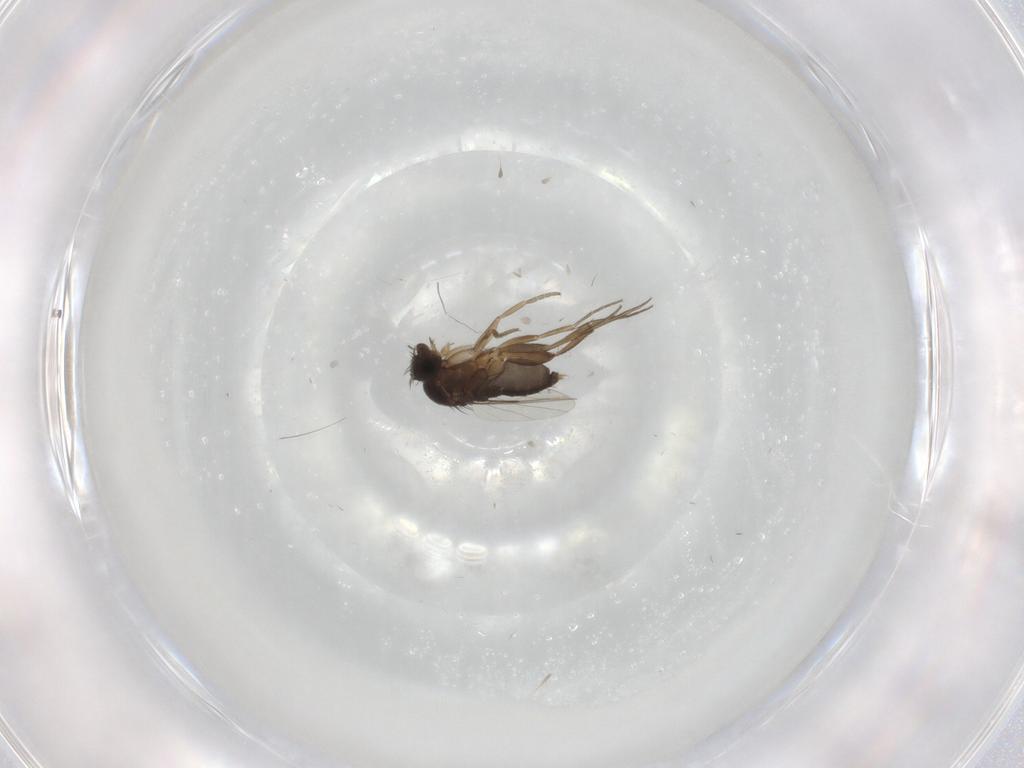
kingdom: Animalia
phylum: Arthropoda
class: Insecta
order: Diptera
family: Phoridae
